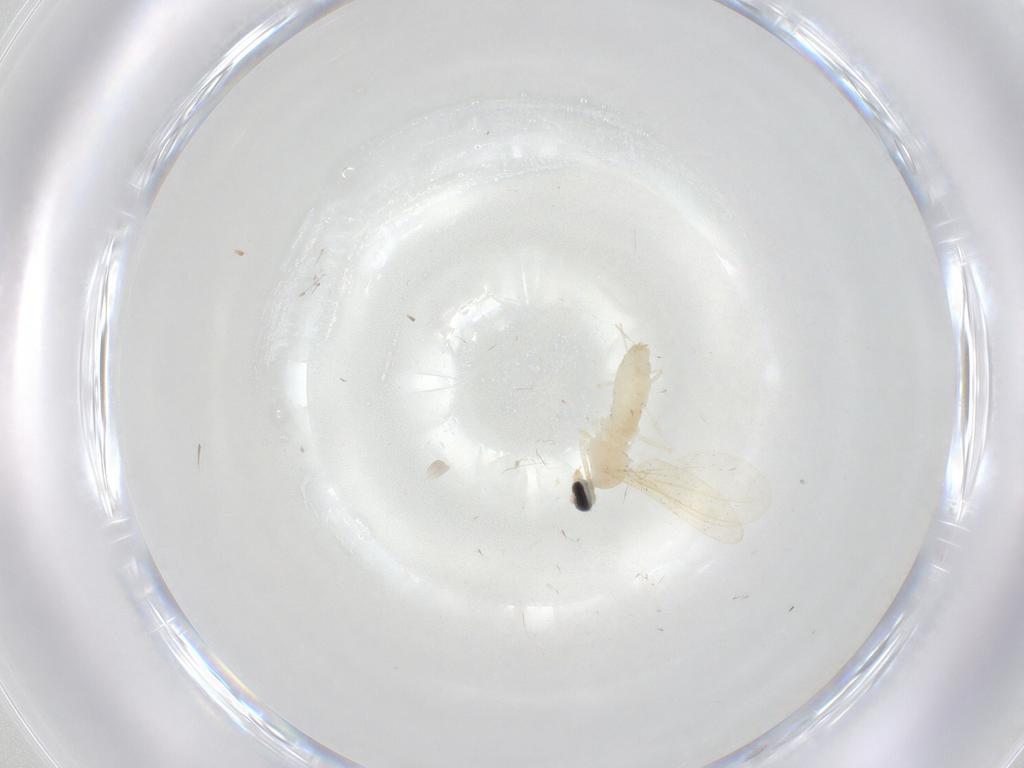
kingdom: Animalia
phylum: Arthropoda
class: Insecta
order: Diptera
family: Cecidomyiidae
